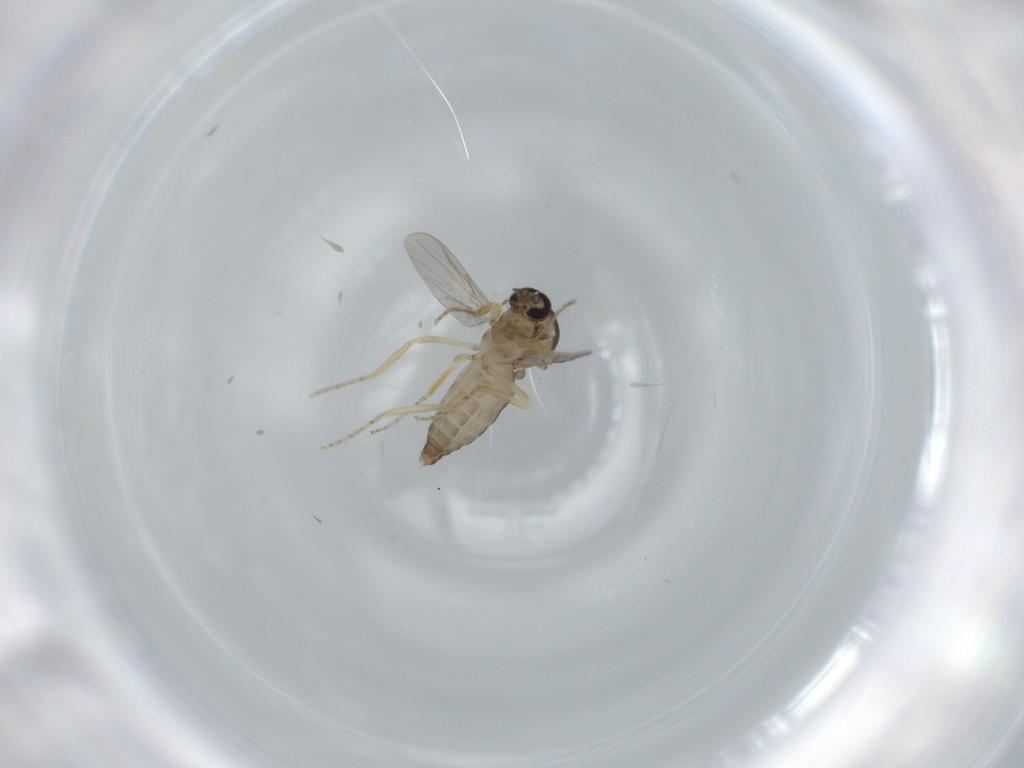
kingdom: Animalia
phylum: Arthropoda
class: Insecta
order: Diptera
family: Ceratopogonidae
